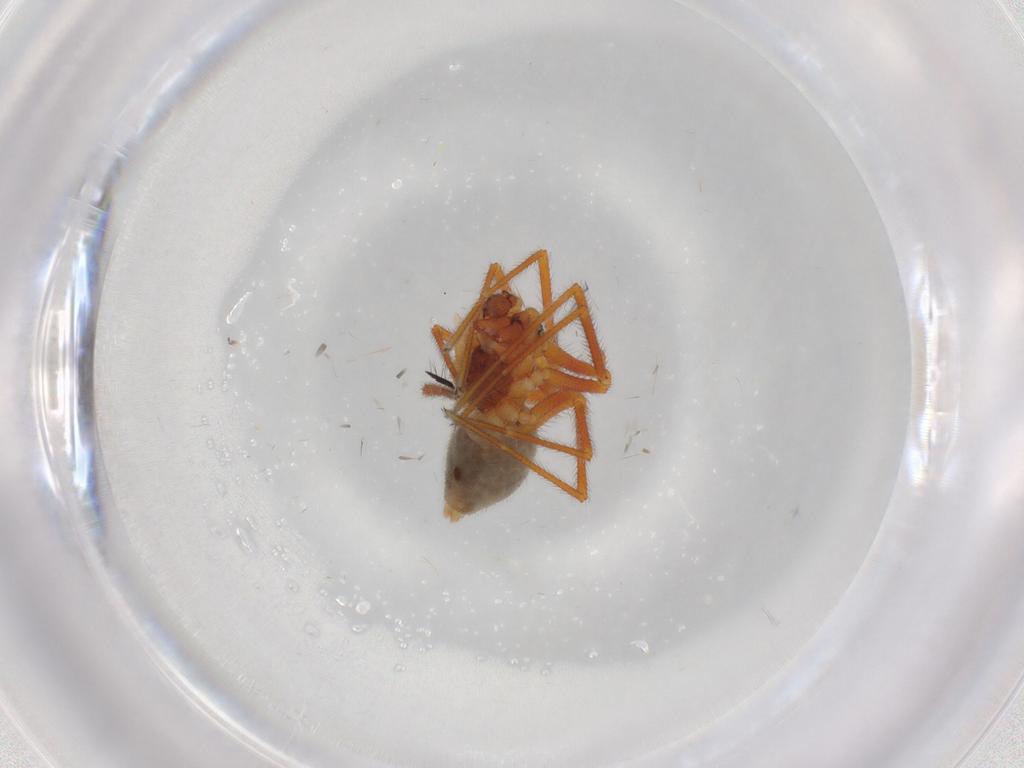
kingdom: Animalia
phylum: Arthropoda
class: Arachnida
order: Araneae
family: Linyphiidae
